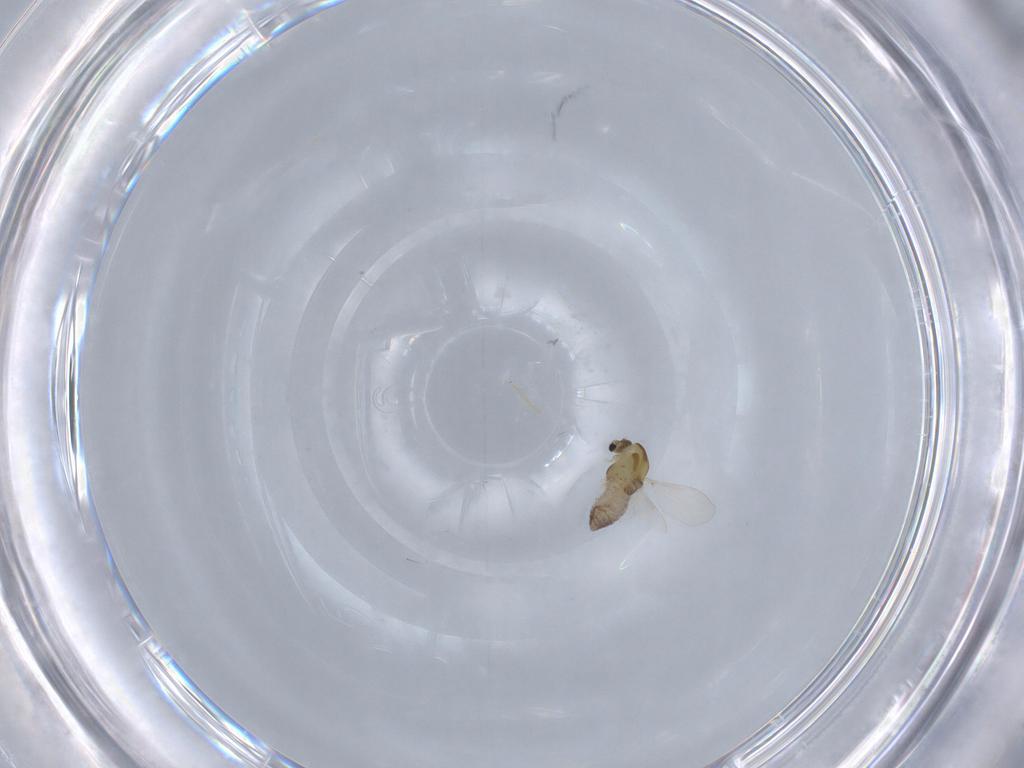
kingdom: Animalia
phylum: Arthropoda
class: Insecta
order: Diptera
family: Chironomidae
